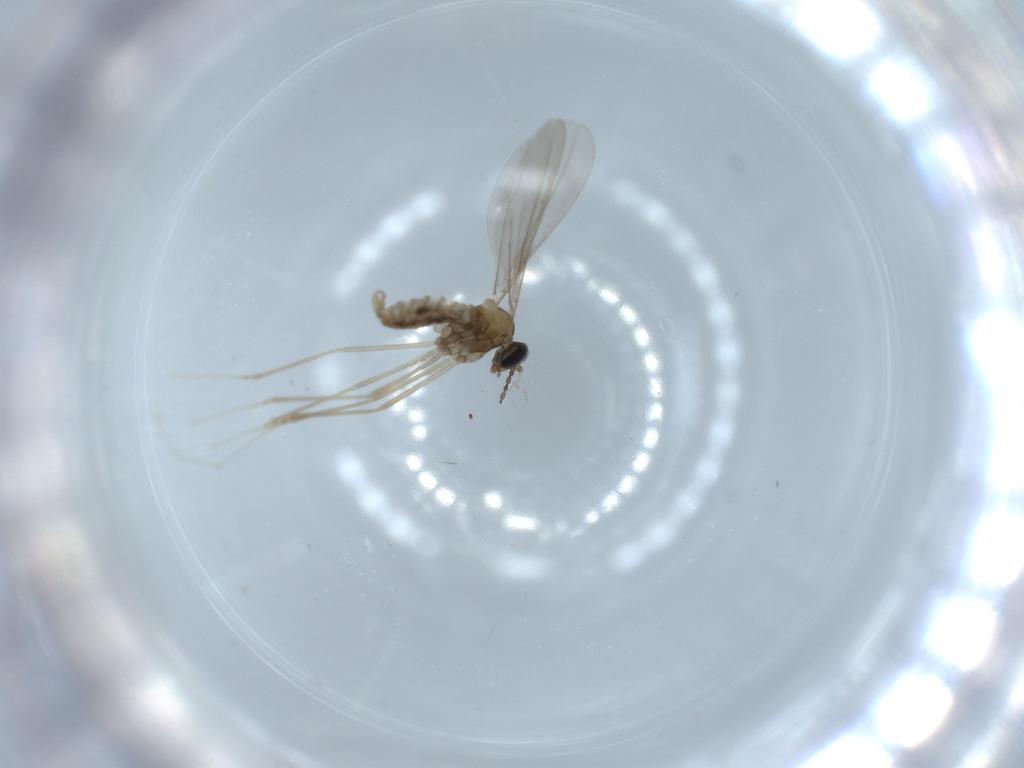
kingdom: Animalia
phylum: Arthropoda
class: Insecta
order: Diptera
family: Cecidomyiidae
